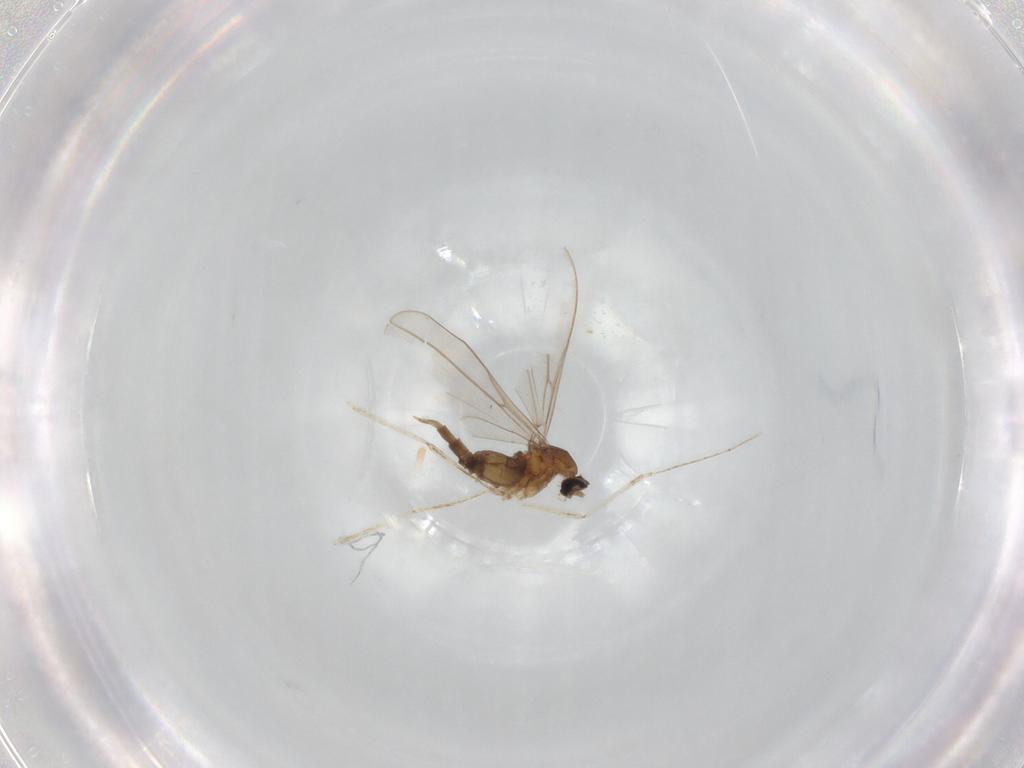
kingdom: Animalia
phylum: Arthropoda
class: Insecta
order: Diptera
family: Cecidomyiidae
